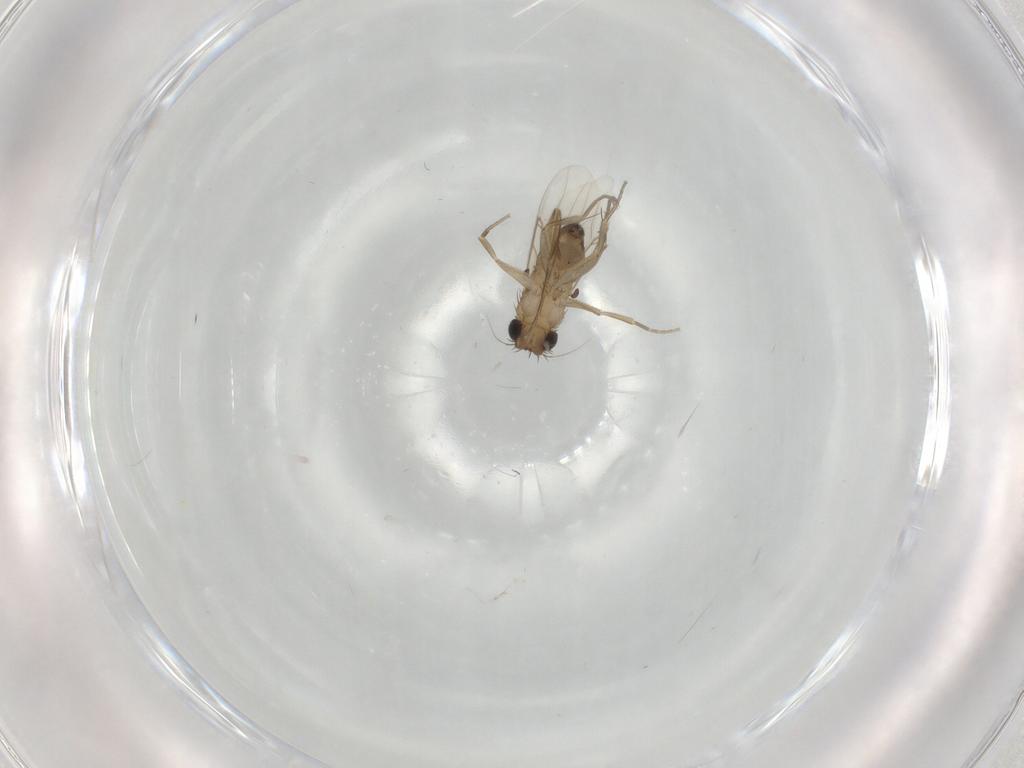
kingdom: Animalia
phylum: Arthropoda
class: Insecta
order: Diptera
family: Phoridae
